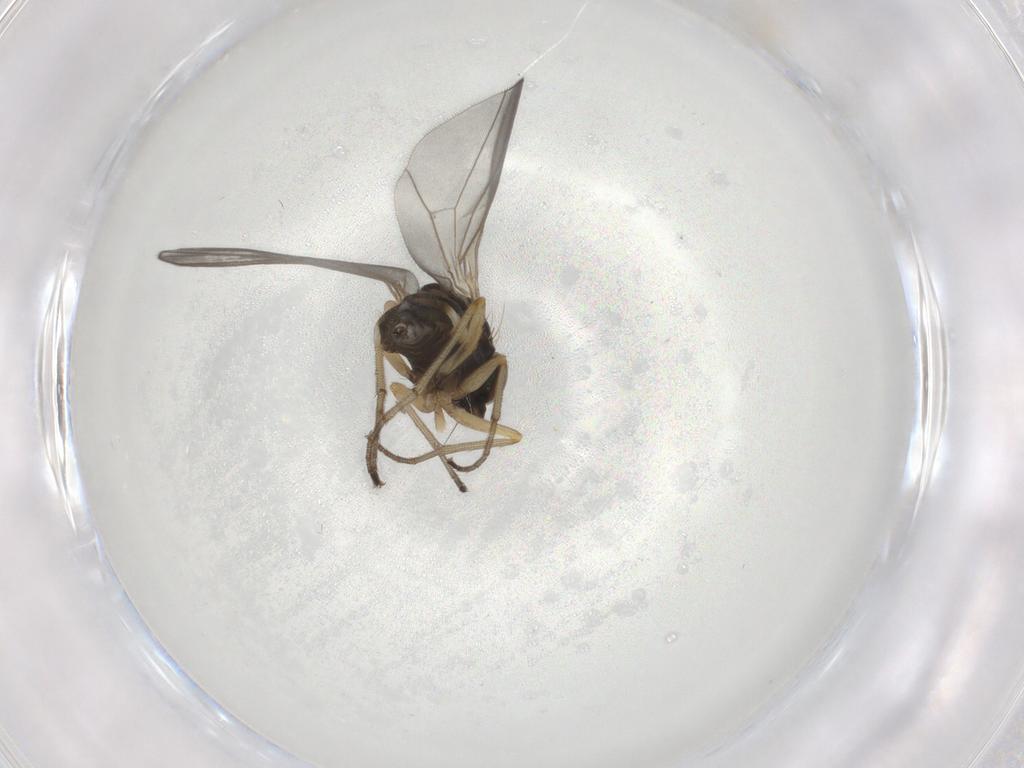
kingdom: Animalia
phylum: Arthropoda
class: Insecta
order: Diptera
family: Dolichopodidae
